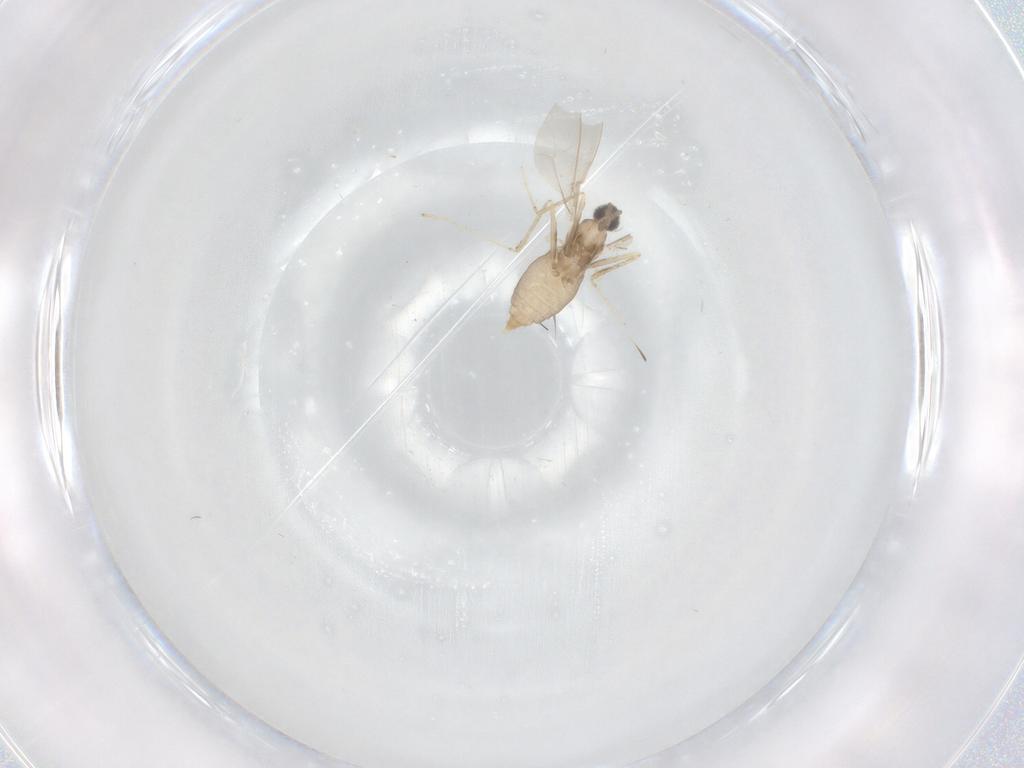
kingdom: Animalia
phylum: Arthropoda
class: Insecta
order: Diptera
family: Cecidomyiidae
